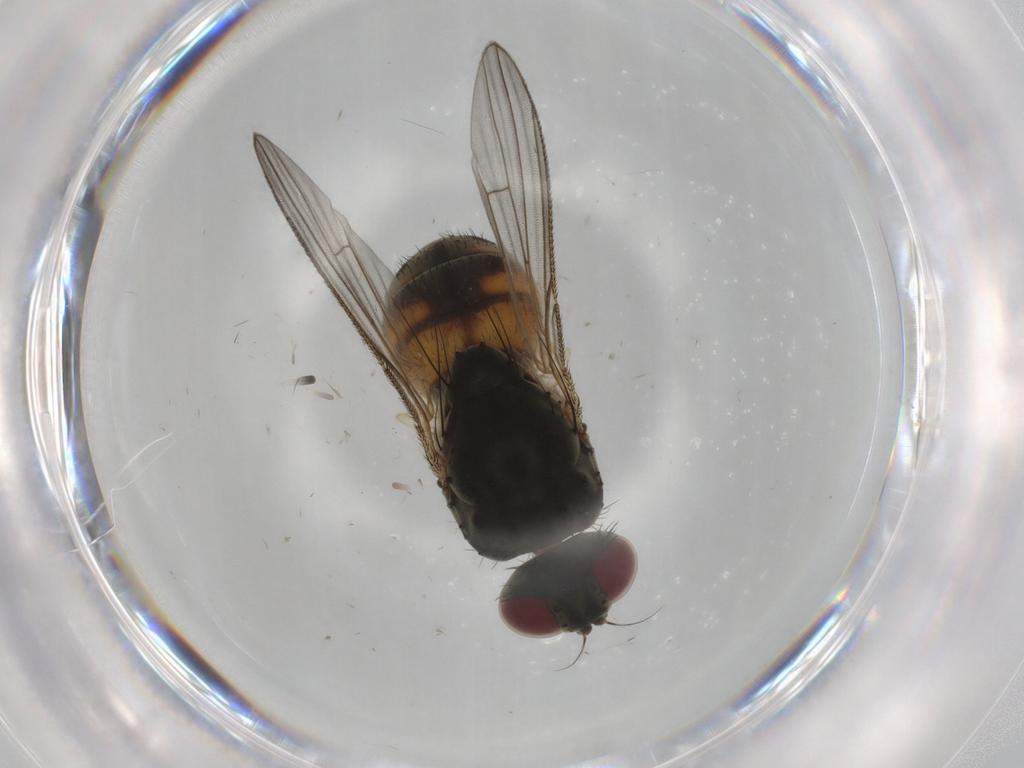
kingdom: Animalia
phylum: Arthropoda
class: Insecta
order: Diptera
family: Muscidae
